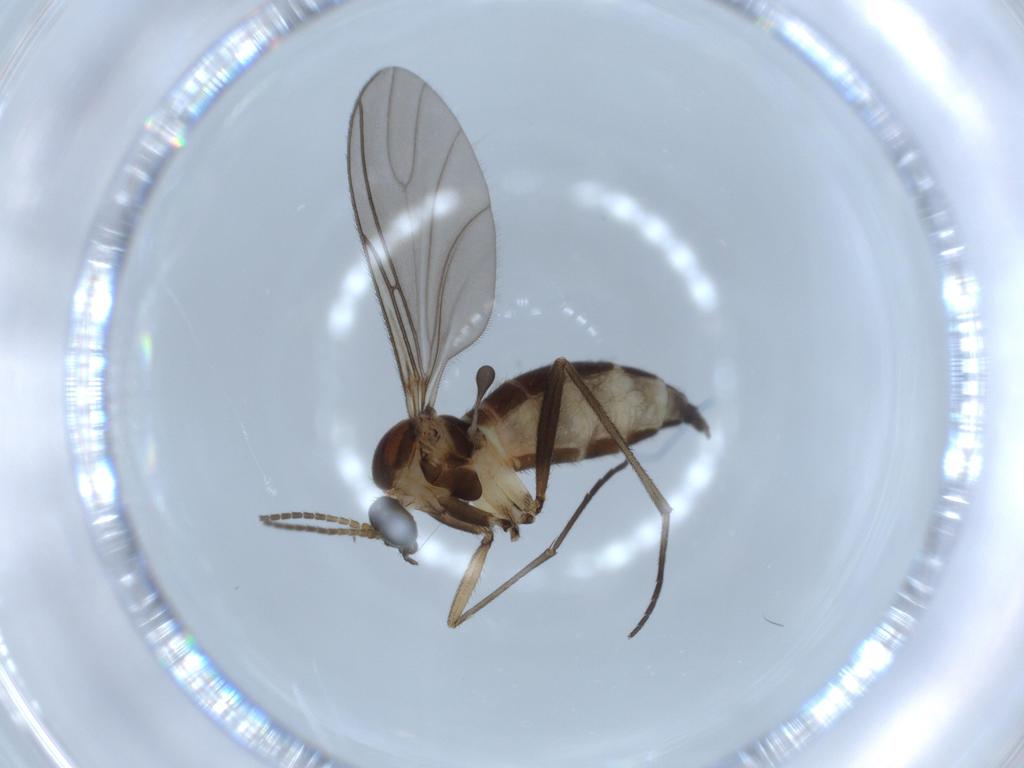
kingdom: Animalia
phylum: Arthropoda
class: Insecta
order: Diptera
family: Sciaridae
